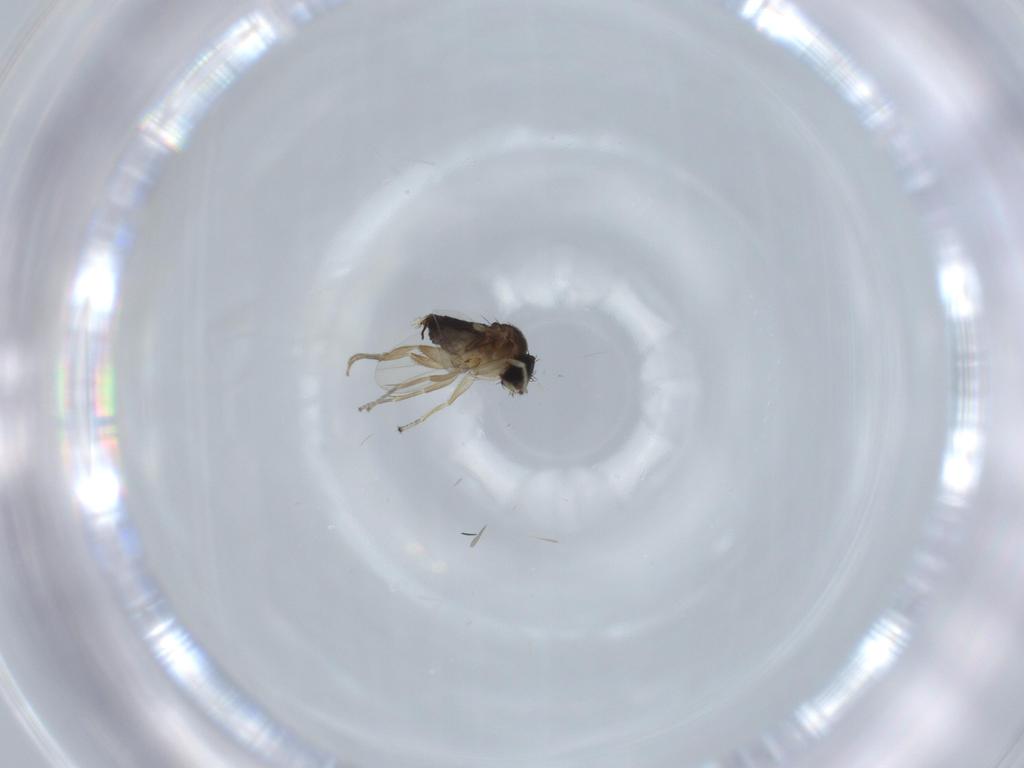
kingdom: Animalia
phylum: Arthropoda
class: Insecta
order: Diptera
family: Phoridae
